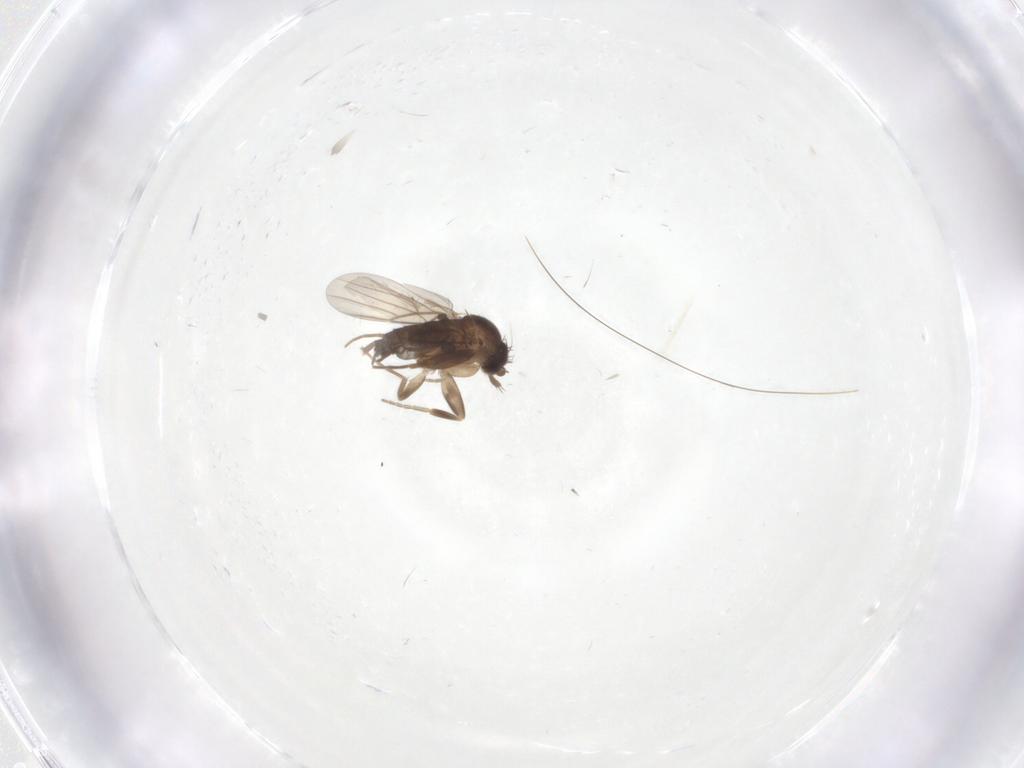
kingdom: Animalia
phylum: Arthropoda
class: Insecta
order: Diptera
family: Phoridae
